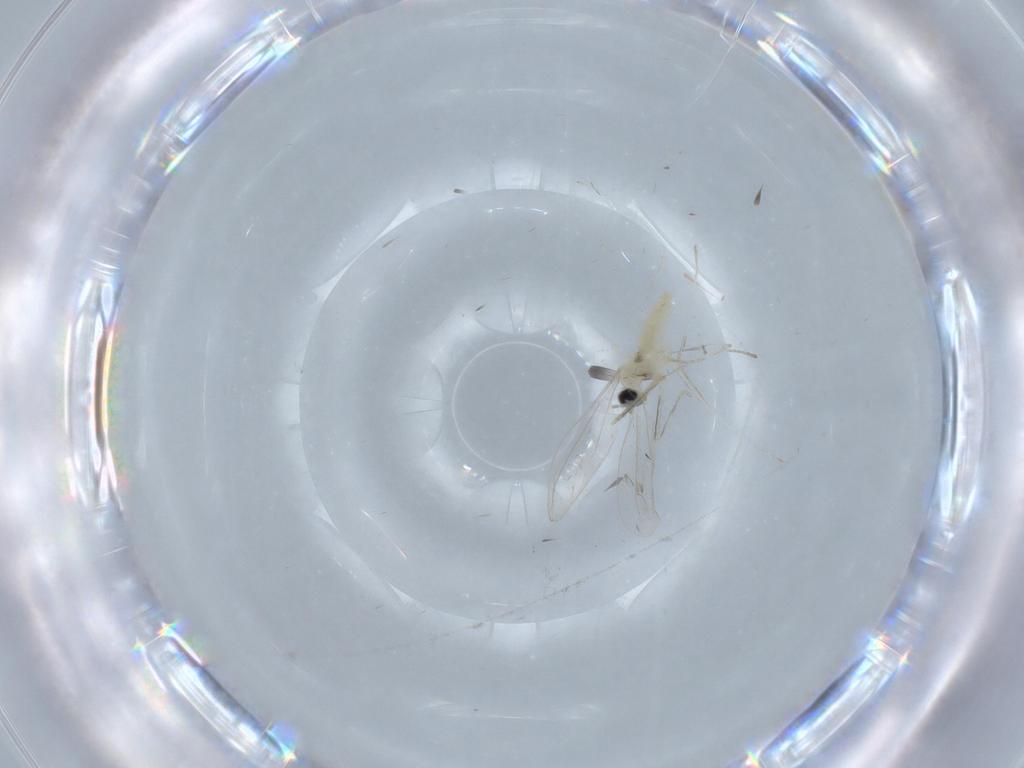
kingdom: Animalia
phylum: Arthropoda
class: Insecta
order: Diptera
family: Cecidomyiidae
